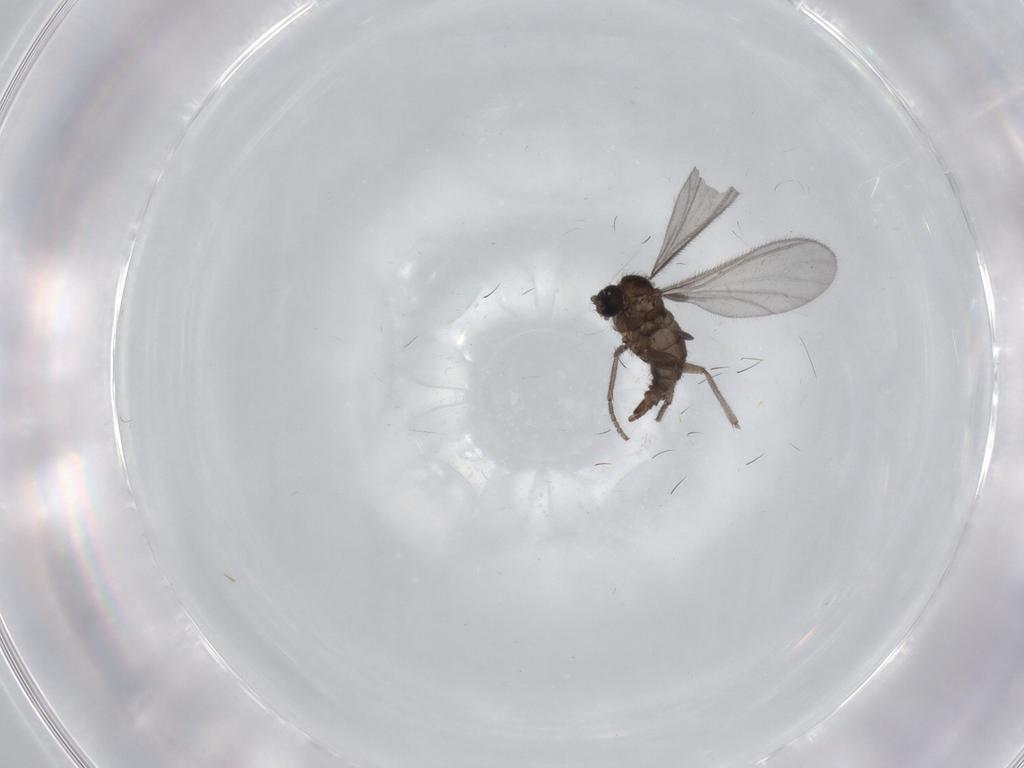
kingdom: Animalia
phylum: Arthropoda
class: Insecta
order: Diptera
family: Sciaridae
